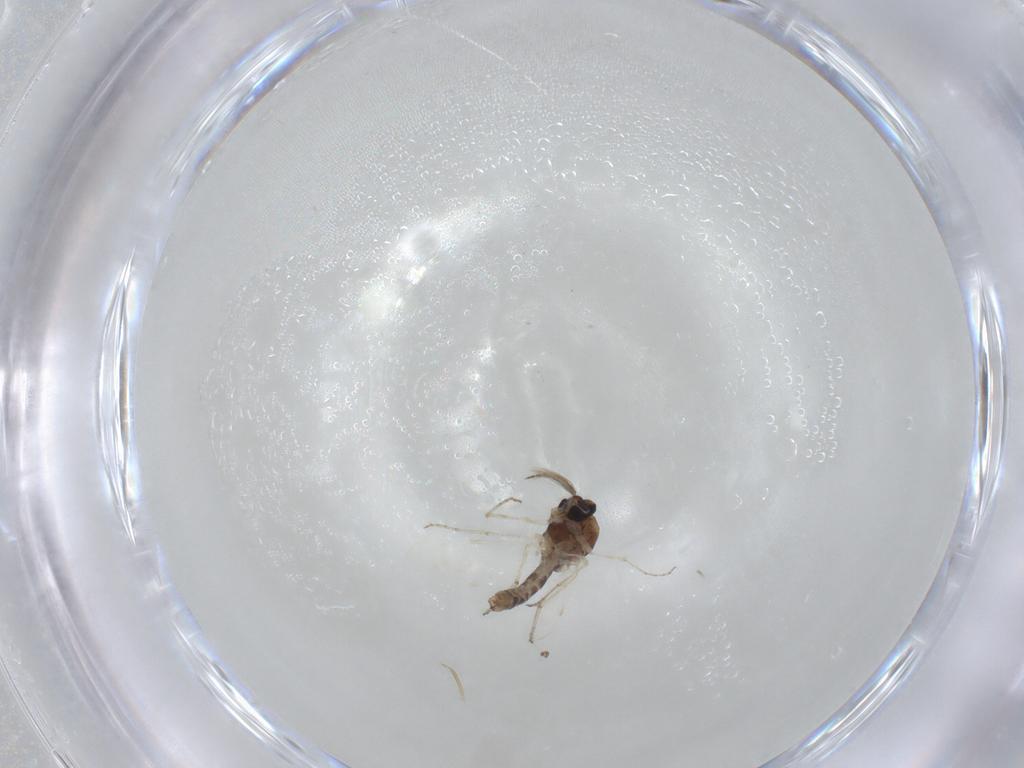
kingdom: Animalia
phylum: Arthropoda
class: Insecta
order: Diptera
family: Ceratopogonidae
